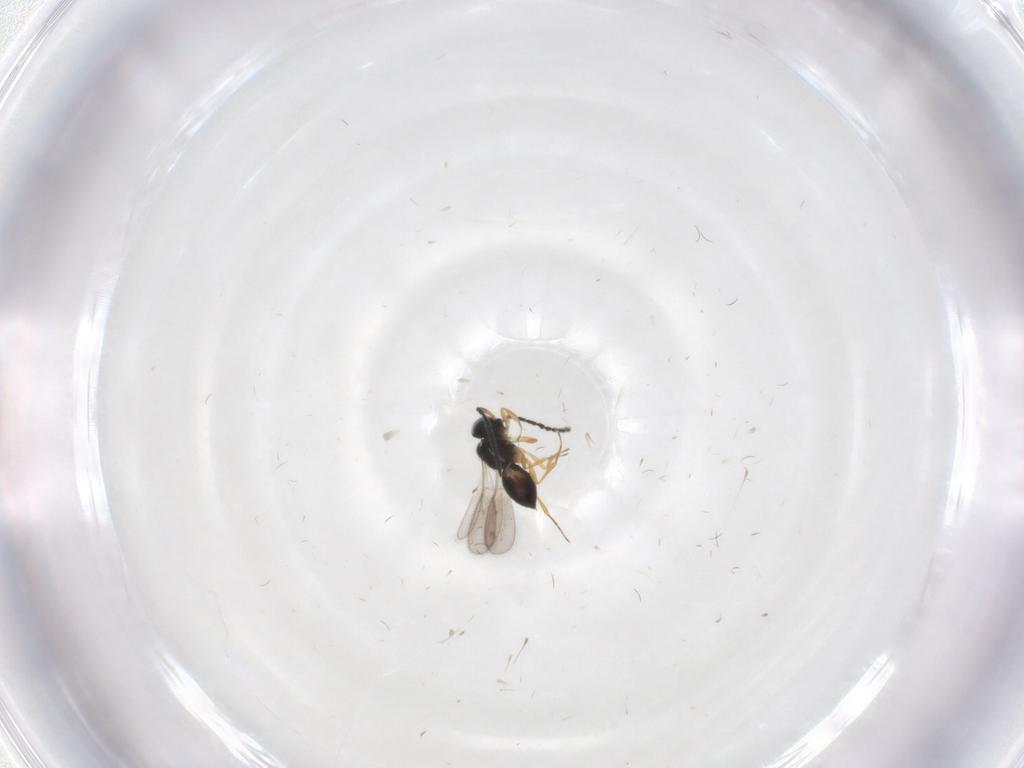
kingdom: Animalia
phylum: Arthropoda
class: Insecta
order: Hymenoptera
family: Scelionidae
